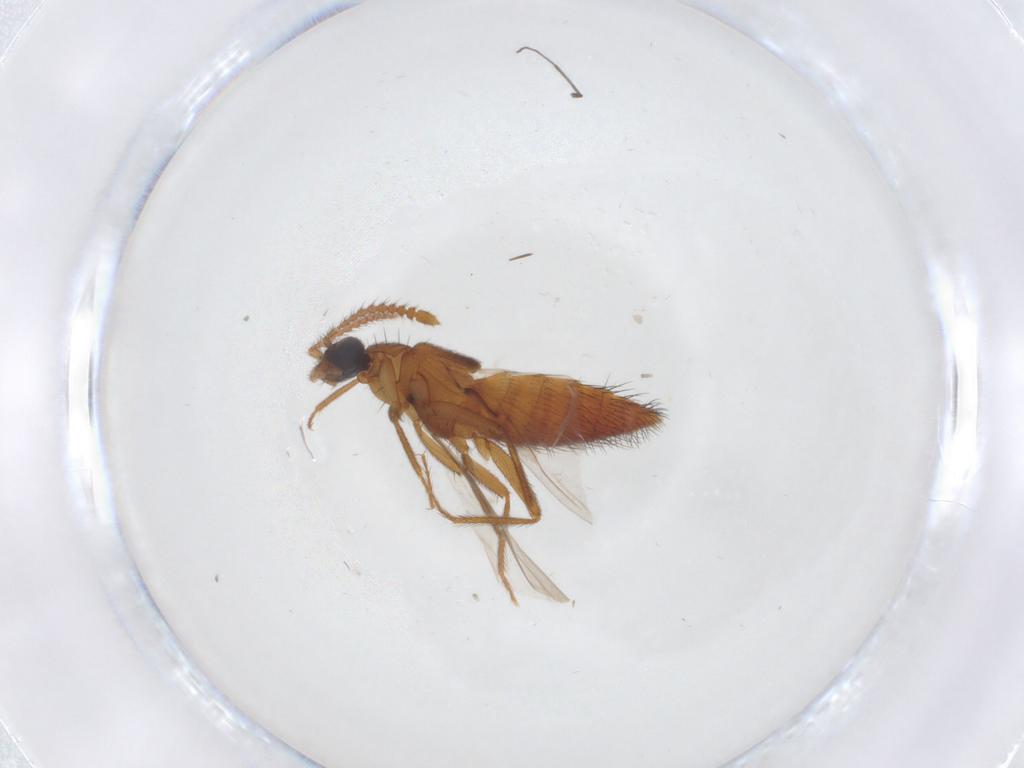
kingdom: Animalia
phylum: Arthropoda
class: Insecta
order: Coleoptera
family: Staphylinidae
